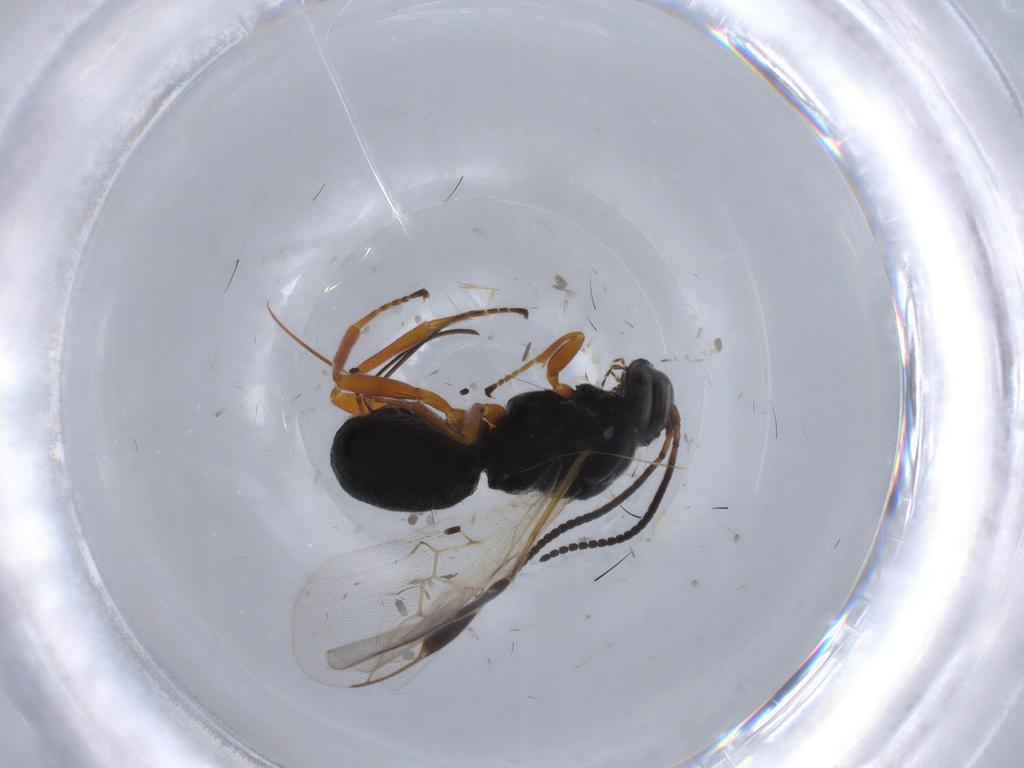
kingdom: Animalia
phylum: Arthropoda
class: Insecta
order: Hymenoptera
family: Braconidae
